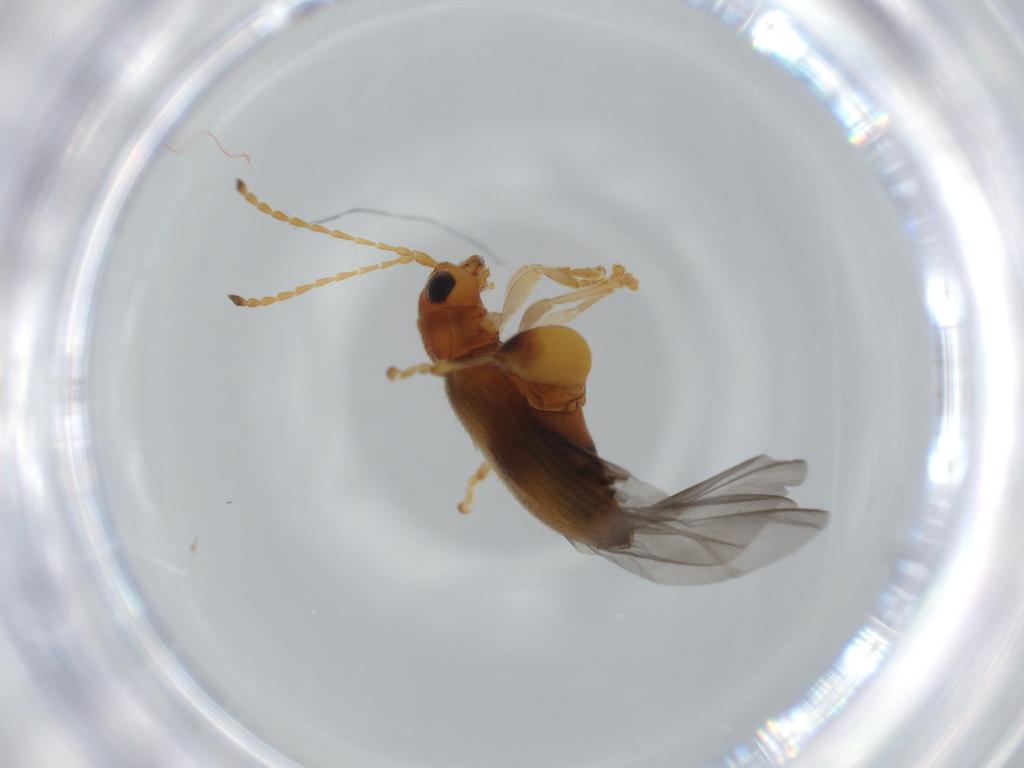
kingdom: Animalia
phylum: Arthropoda
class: Insecta
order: Coleoptera
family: Chrysomelidae
